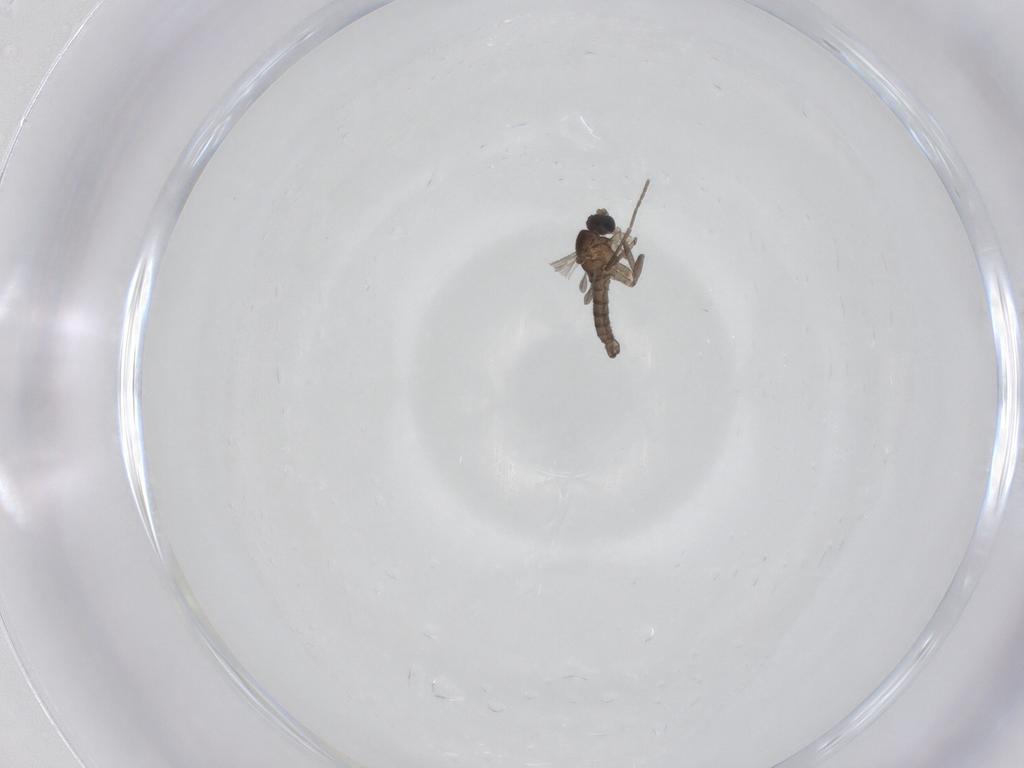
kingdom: Animalia
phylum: Arthropoda
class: Insecta
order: Diptera
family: Sciaridae
